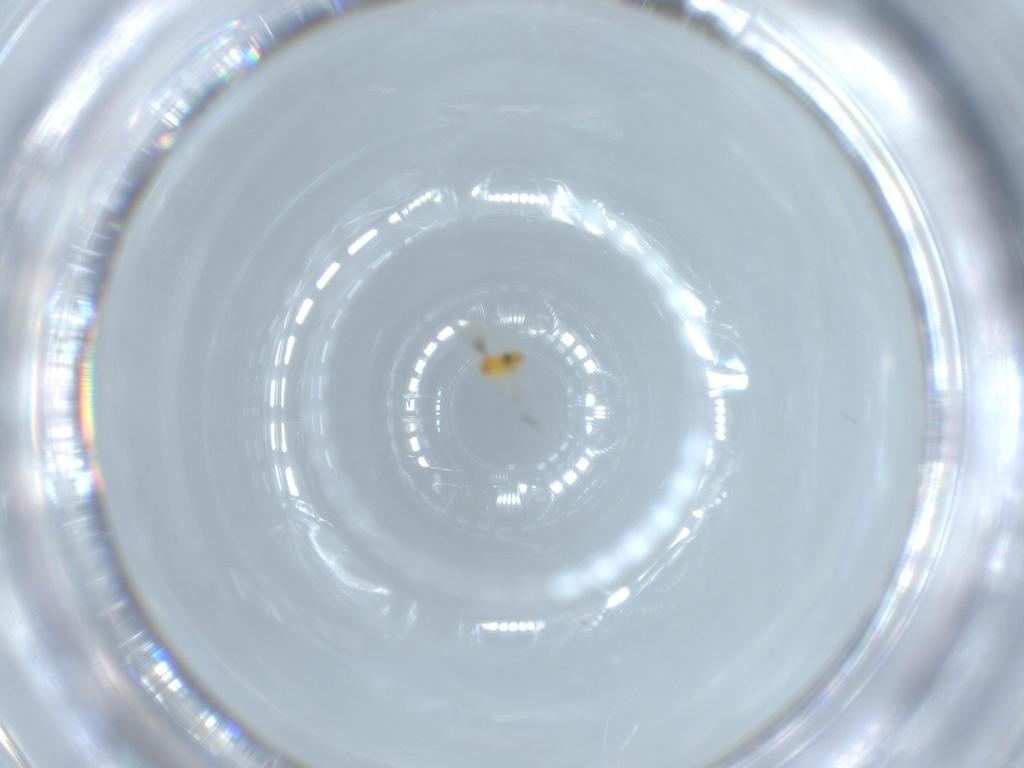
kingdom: Animalia
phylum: Arthropoda
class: Insecta
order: Hymenoptera
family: Trichogrammatidae
